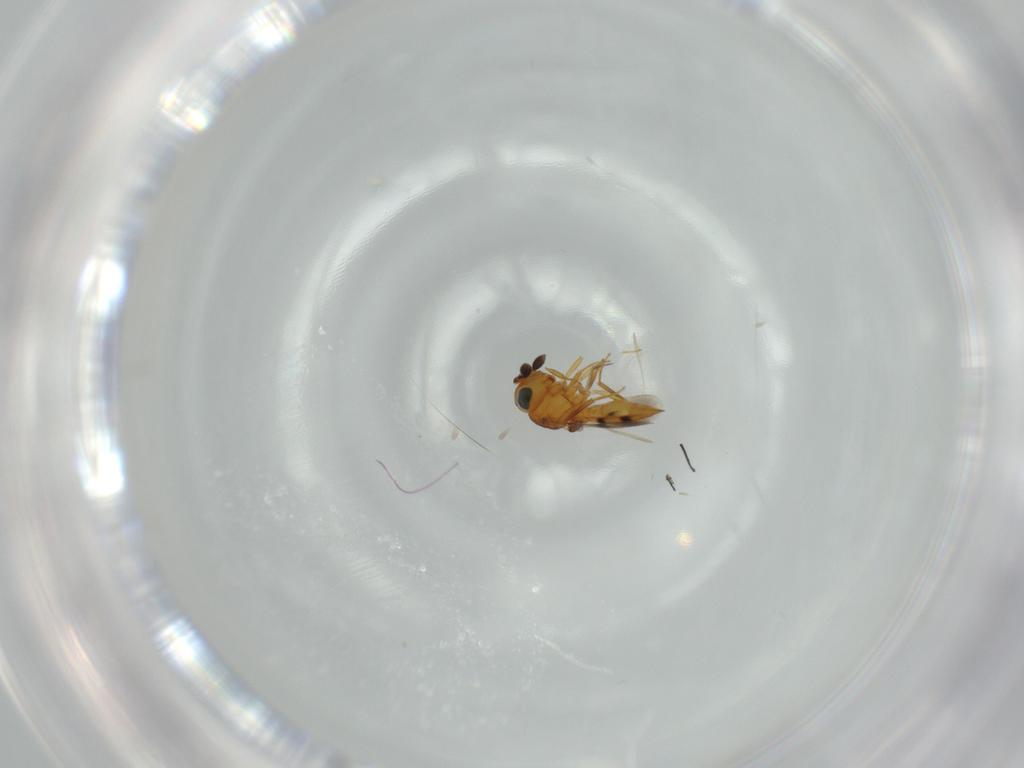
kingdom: Animalia
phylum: Arthropoda
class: Insecta
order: Hymenoptera
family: Scelionidae
